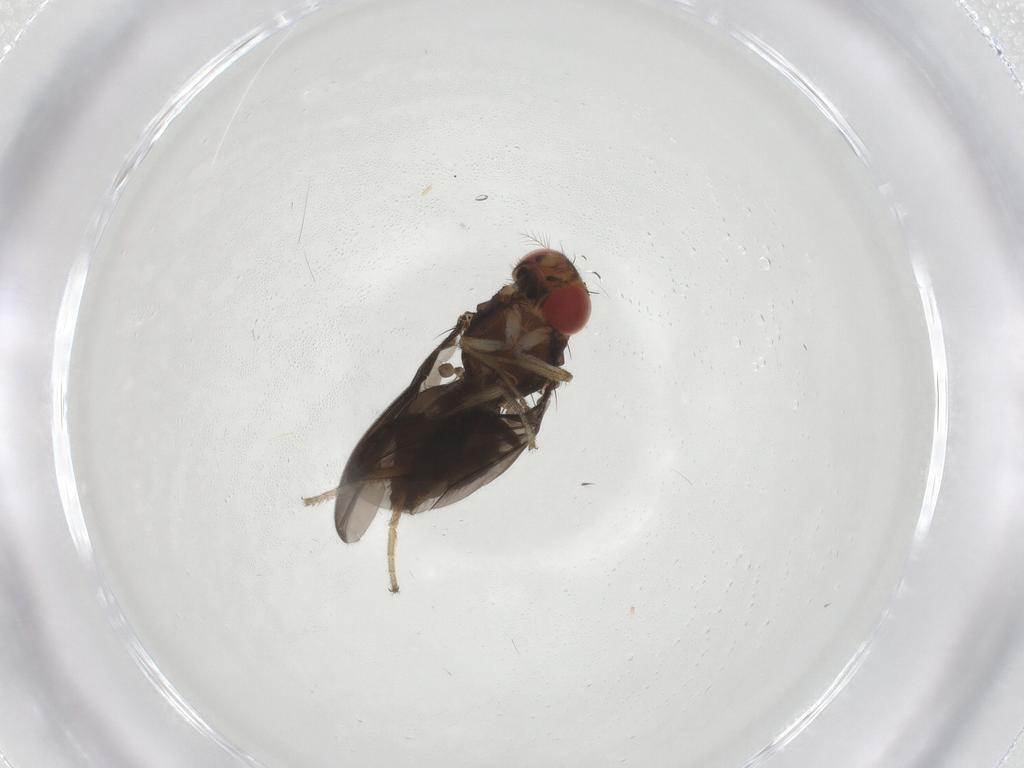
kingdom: Animalia
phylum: Arthropoda
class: Insecta
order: Diptera
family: Drosophilidae
